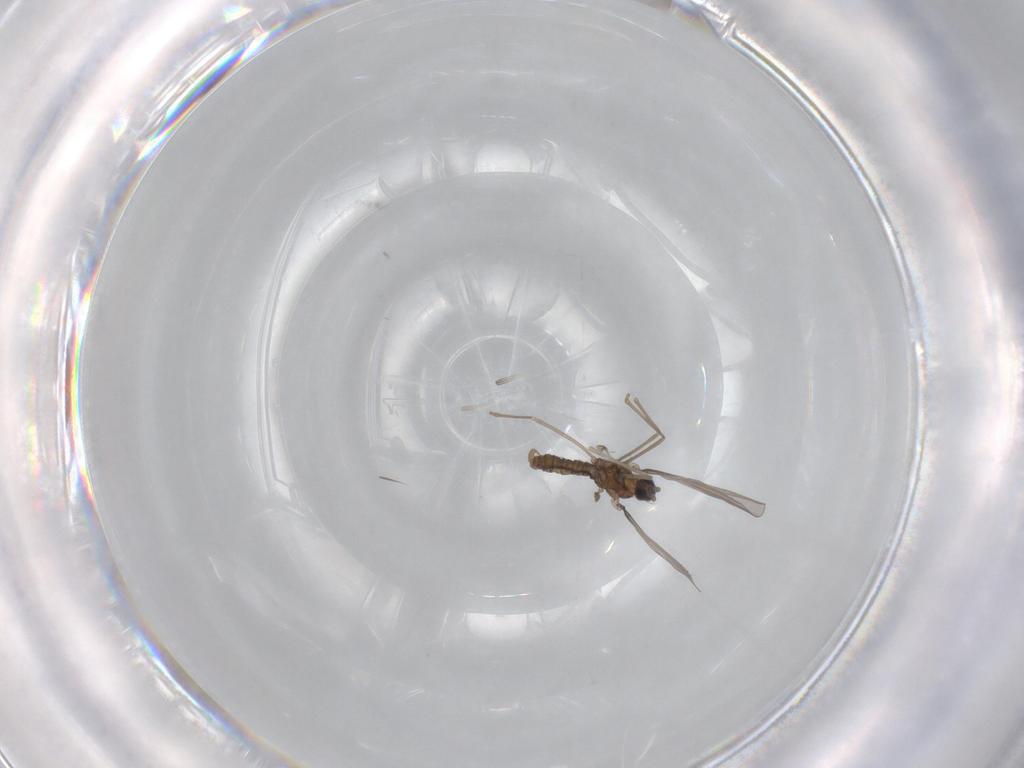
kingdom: Animalia
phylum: Arthropoda
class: Insecta
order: Diptera
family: Cecidomyiidae
